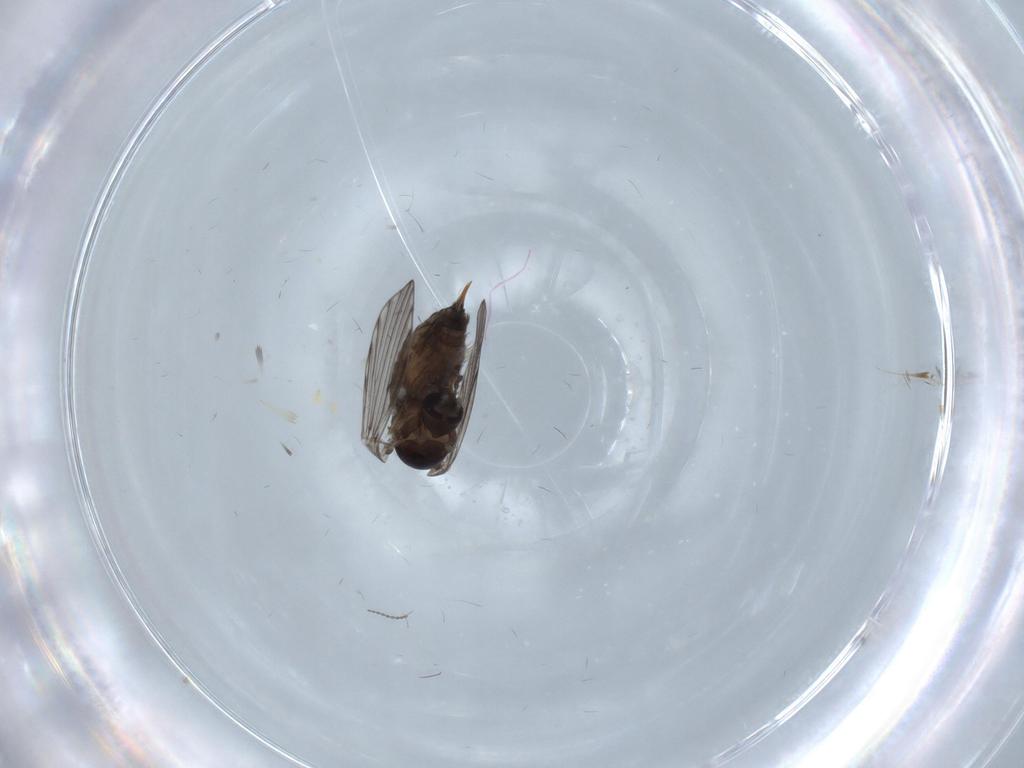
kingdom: Animalia
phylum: Arthropoda
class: Insecta
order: Diptera
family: Psychodidae
